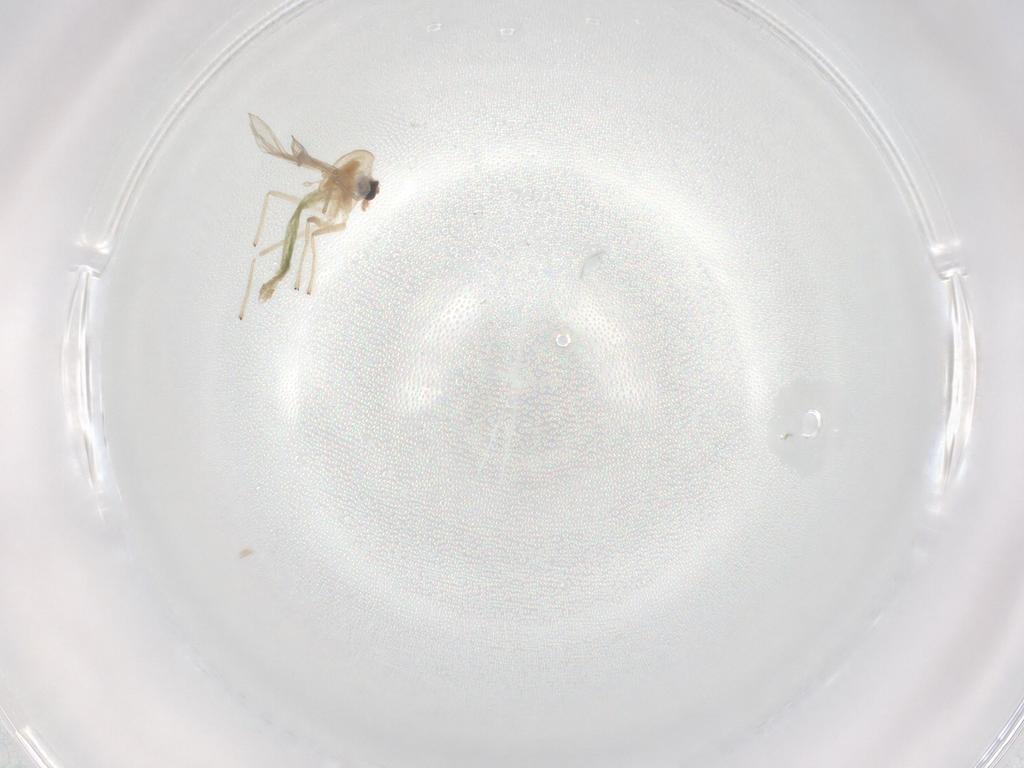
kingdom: Animalia
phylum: Arthropoda
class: Insecta
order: Diptera
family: Chironomidae
